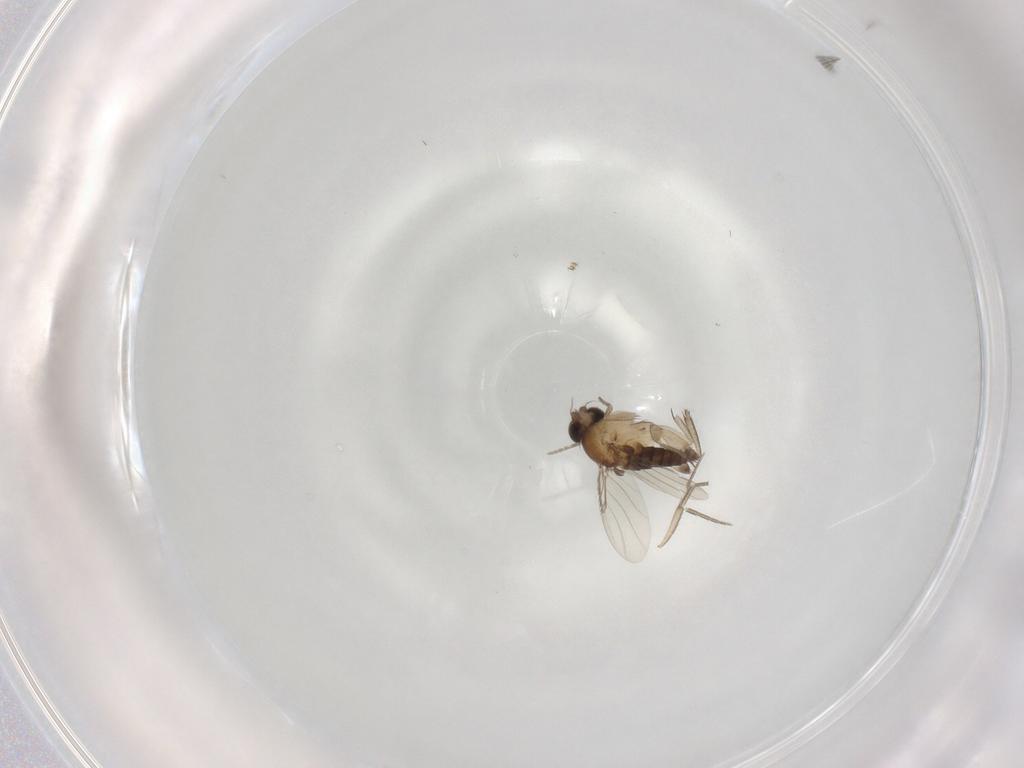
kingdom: Animalia
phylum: Arthropoda
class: Insecta
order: Diptera
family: Phoridae
